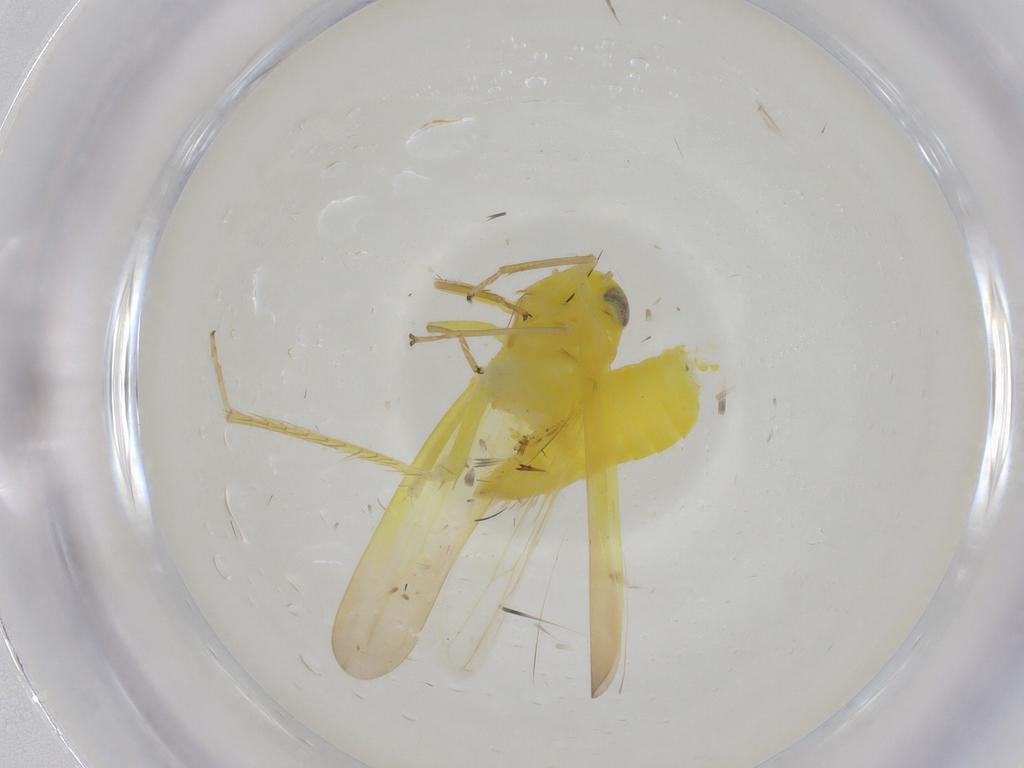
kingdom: Animalia
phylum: Arthropoda
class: Insecta
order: Hemiptera
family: Cicadellidae
